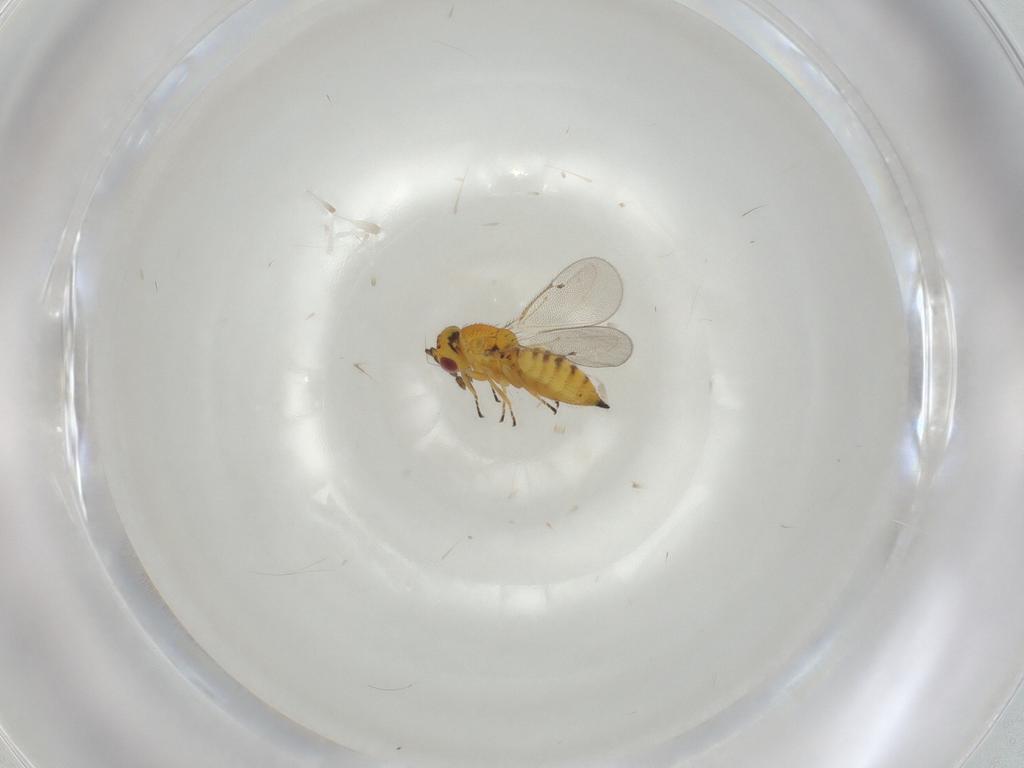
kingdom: Animalia
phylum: Arthropoda
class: Insecta
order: Hymenoptera
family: Eulophidae
